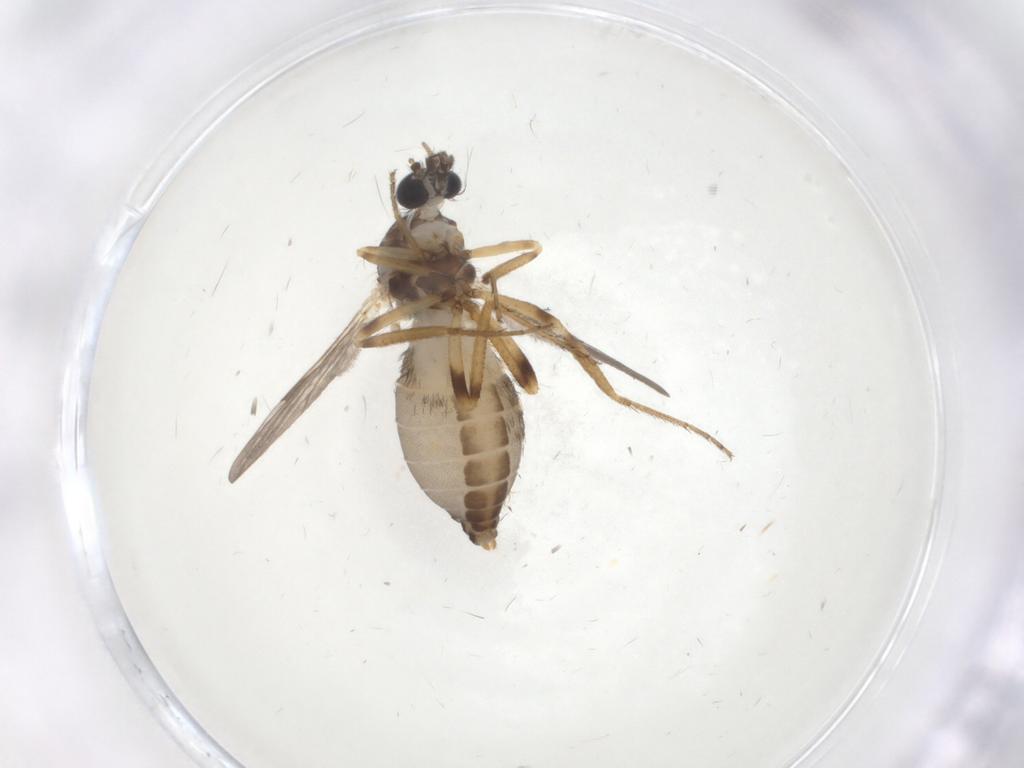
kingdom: Animalia
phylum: Arthropoda
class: Insecta
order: Diptera
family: Ceratopogonidae
